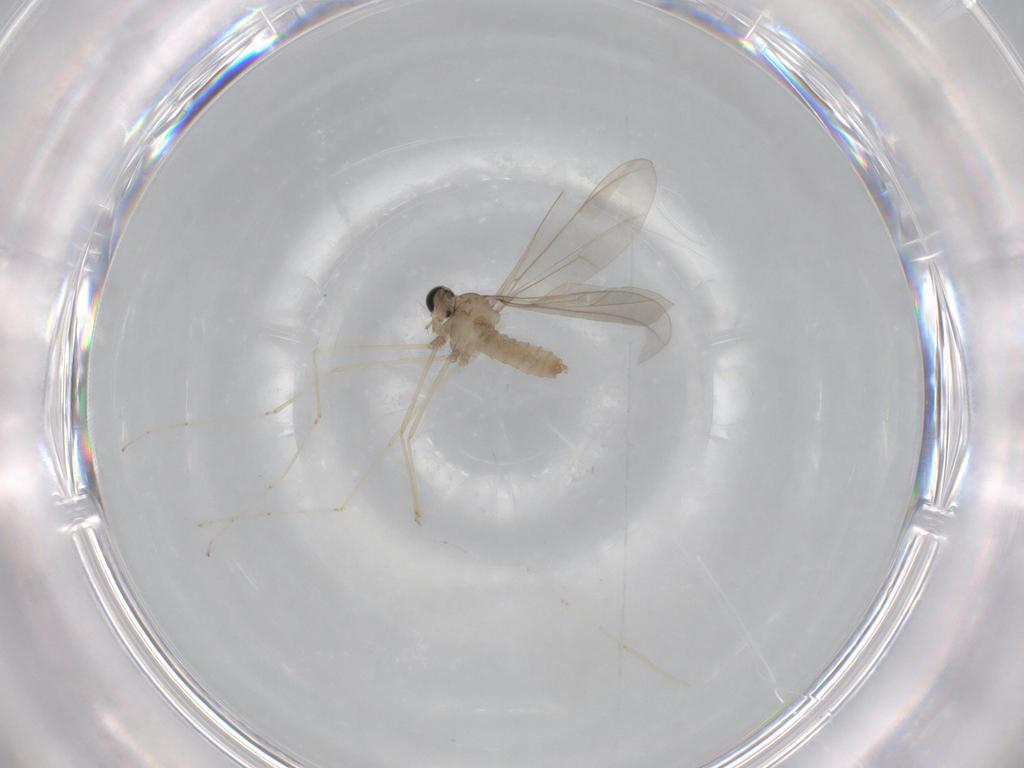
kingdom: Animalia
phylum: Arthropoda
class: Insecta
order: Diptera
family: Cecidomyiidae
